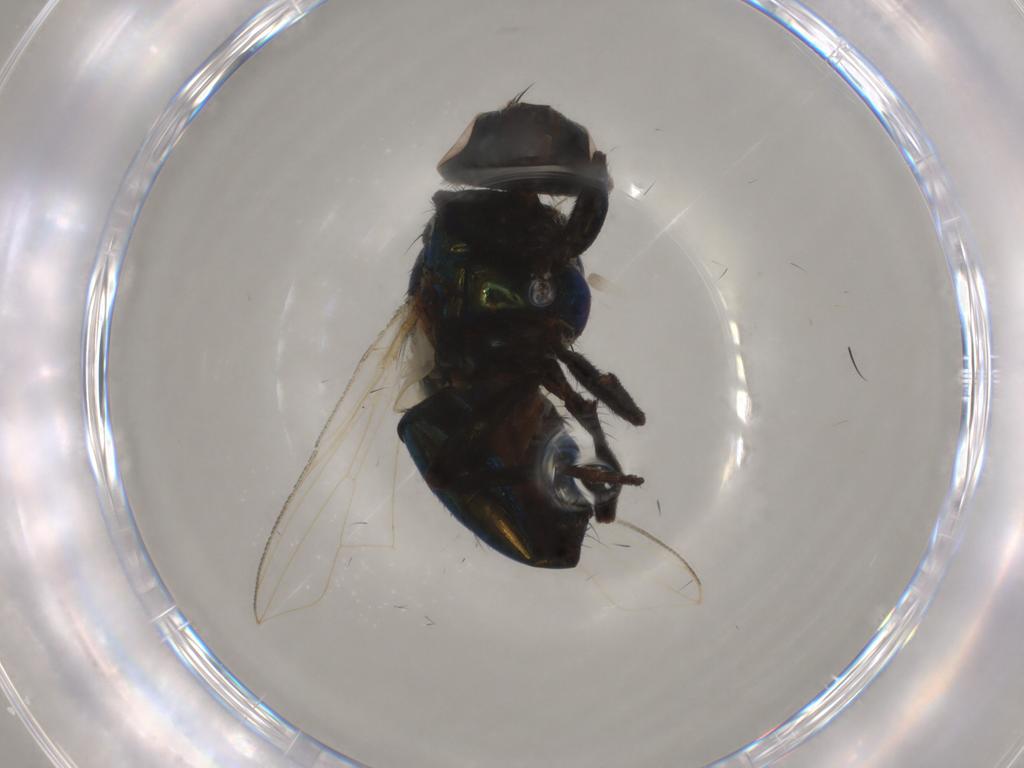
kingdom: Animalia
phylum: Arthropoda
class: Insecta
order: Diptera
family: Muscidae
